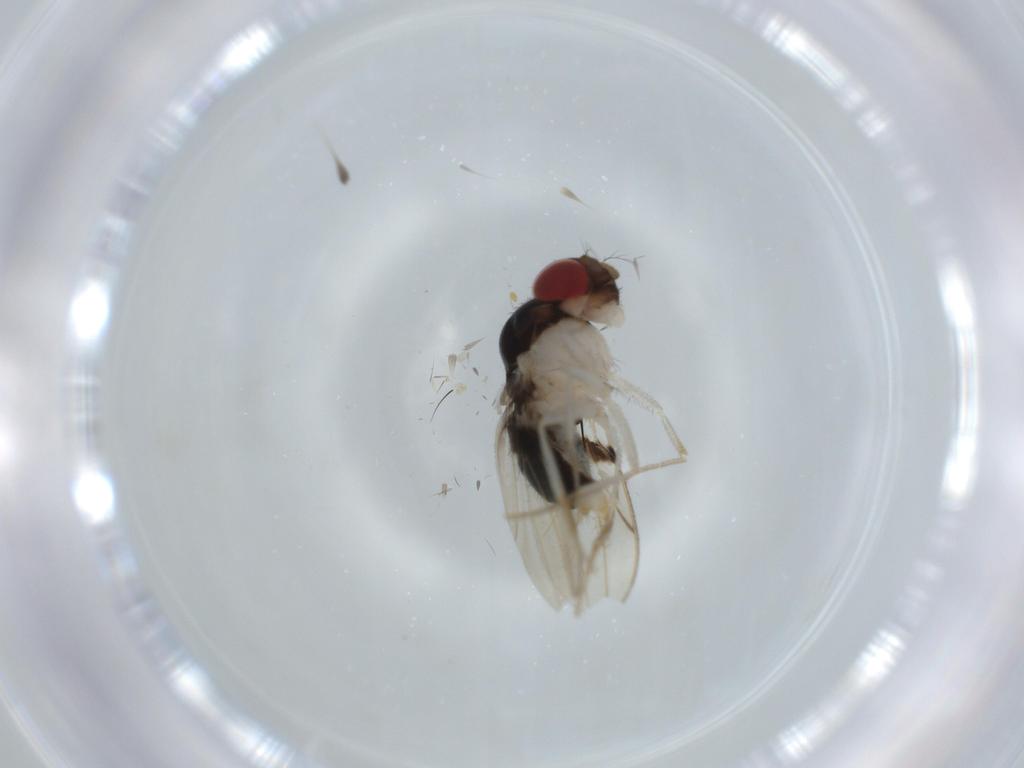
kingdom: Animalia
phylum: Arthropoda
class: Insecta
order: Diptera
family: Drosophilidae
